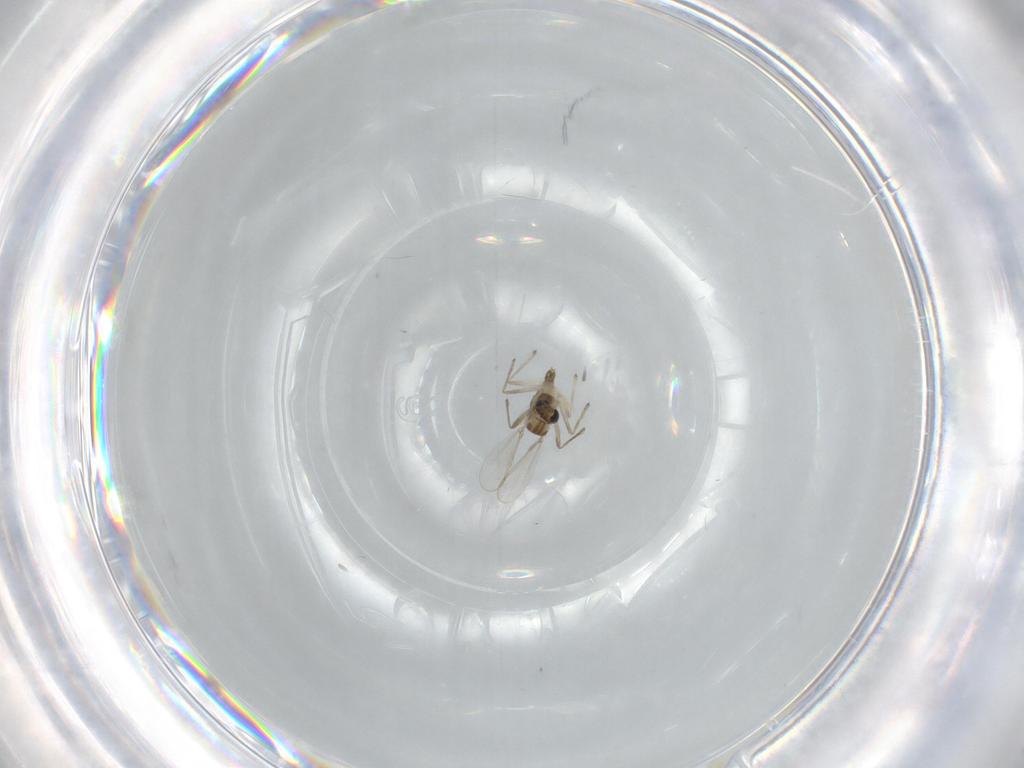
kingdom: Animalia
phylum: Arthropoda
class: Insecta
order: Diptera
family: Chironomidae
